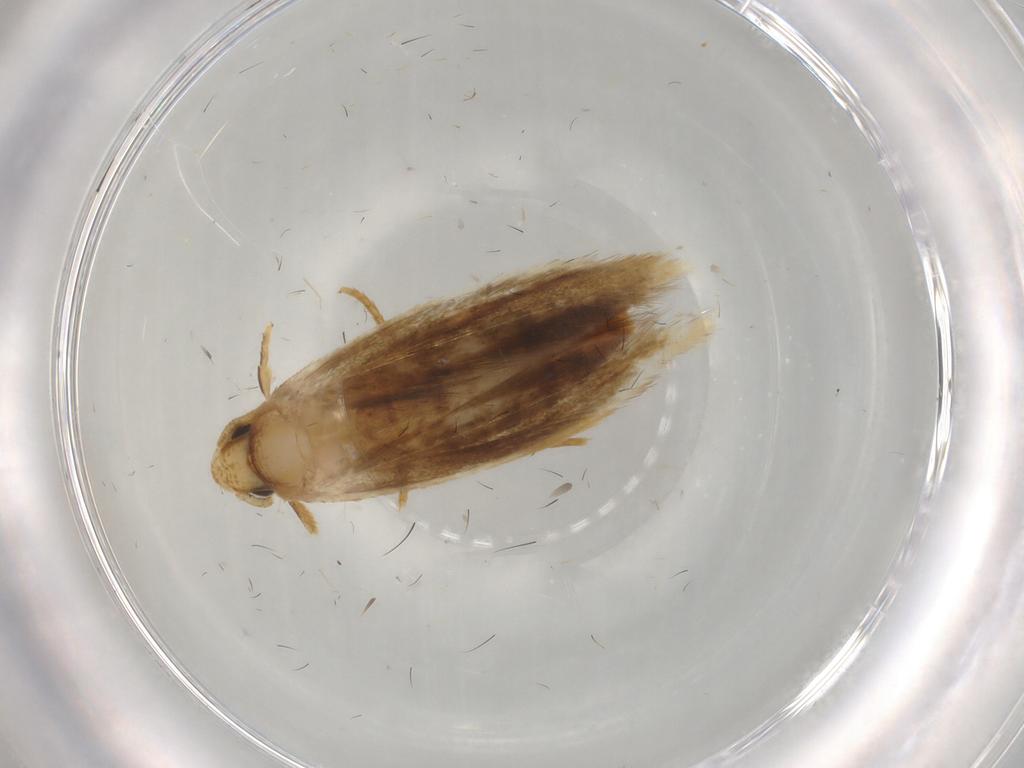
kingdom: Animalia
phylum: Arthropoda
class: Insecta
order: Lepidoptera
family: Tineidae
